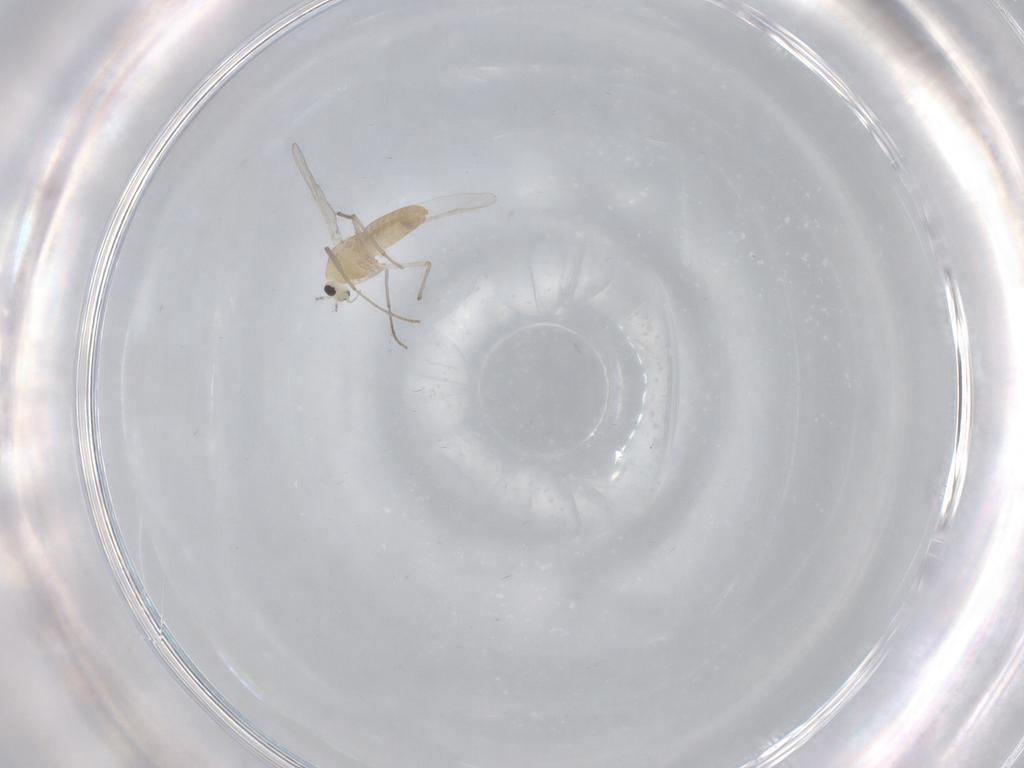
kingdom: Animalia
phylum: Arthropoda
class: Insecta
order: Diptera
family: Chironomidae
